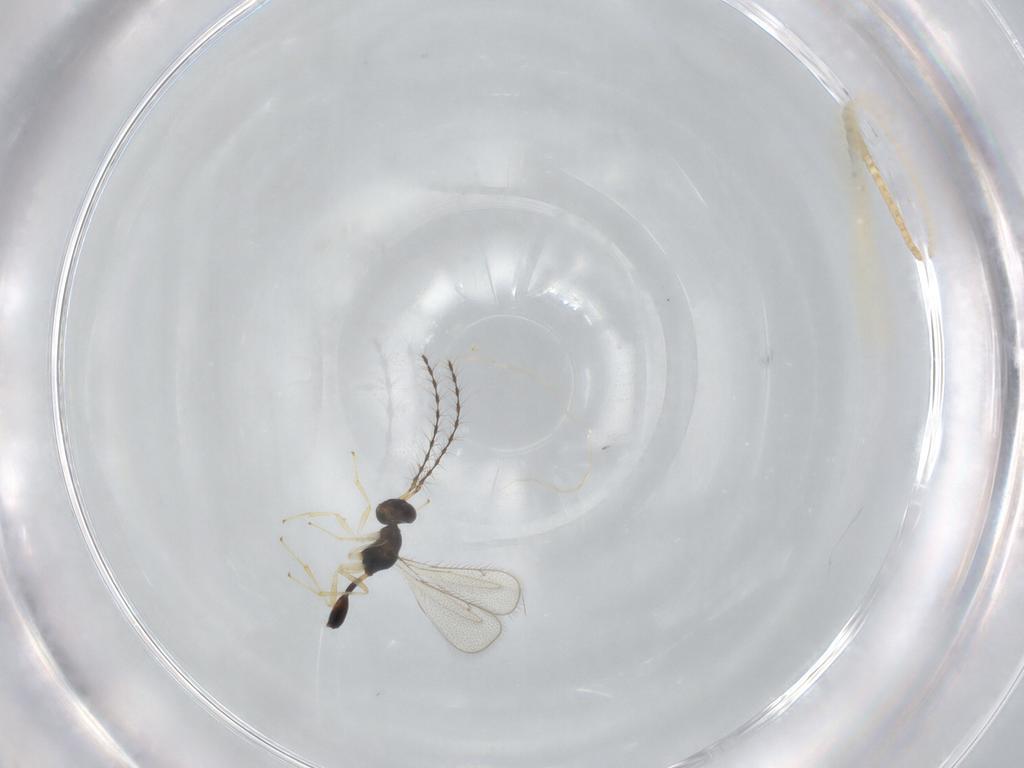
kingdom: Animalia
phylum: Arthropoda
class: Insecta
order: Hymenoptera
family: Diparidae
